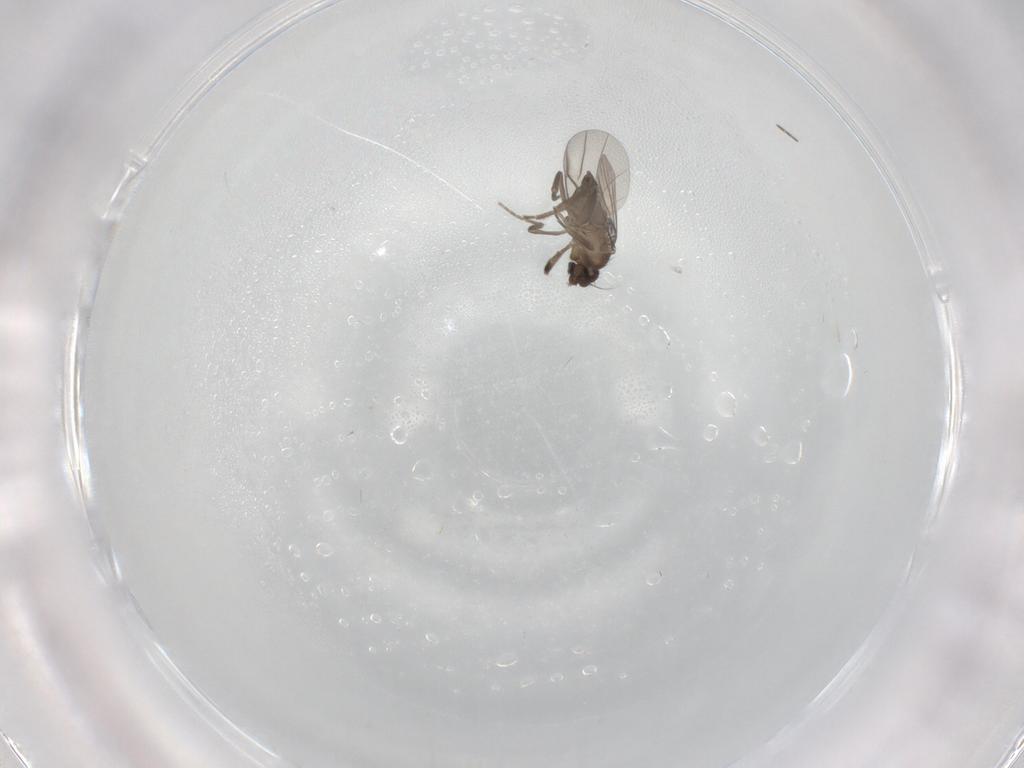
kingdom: Animalia
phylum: Arthropoda
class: Insecta
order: Diptera
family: Phoridae
